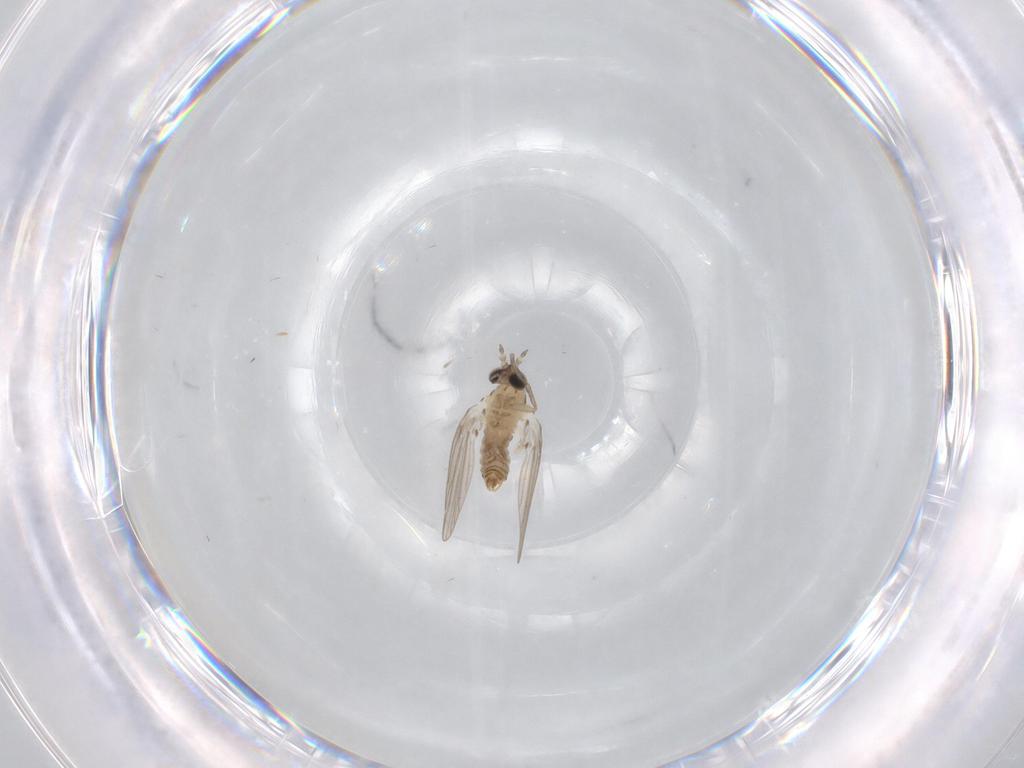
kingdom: Animalia
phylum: Arthropoda
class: Insecta
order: Diptera
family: Psychodidae
